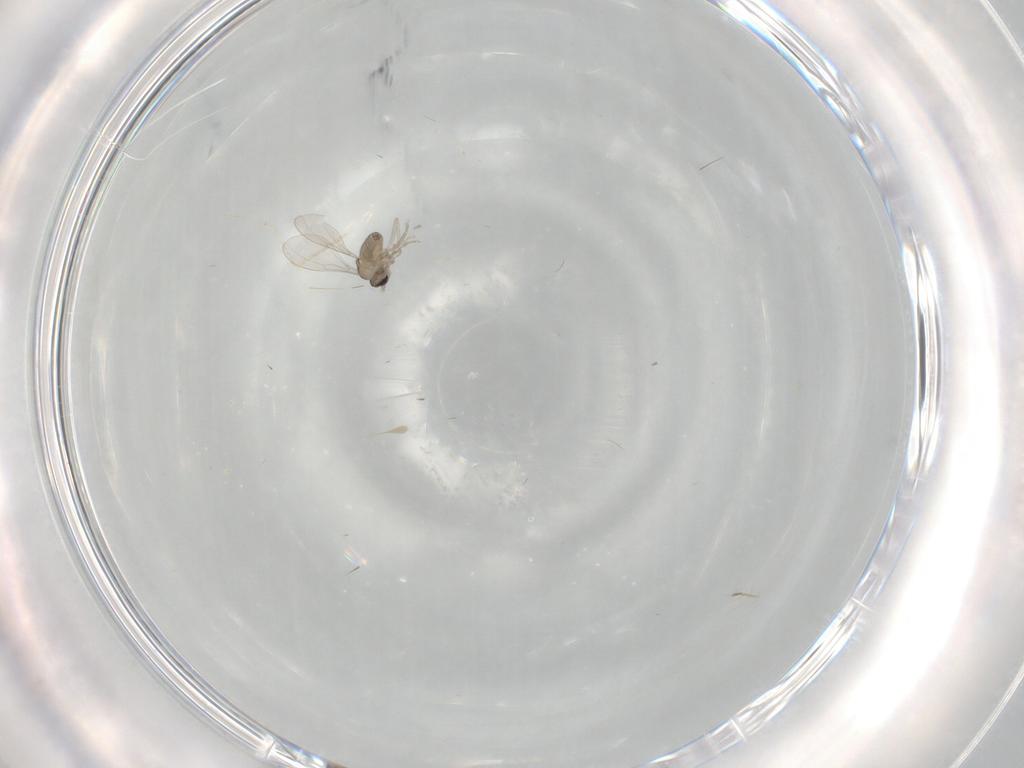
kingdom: Animalia
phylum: Arthropoda
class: Insecta
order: Diptera
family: Cecidomyiidae
